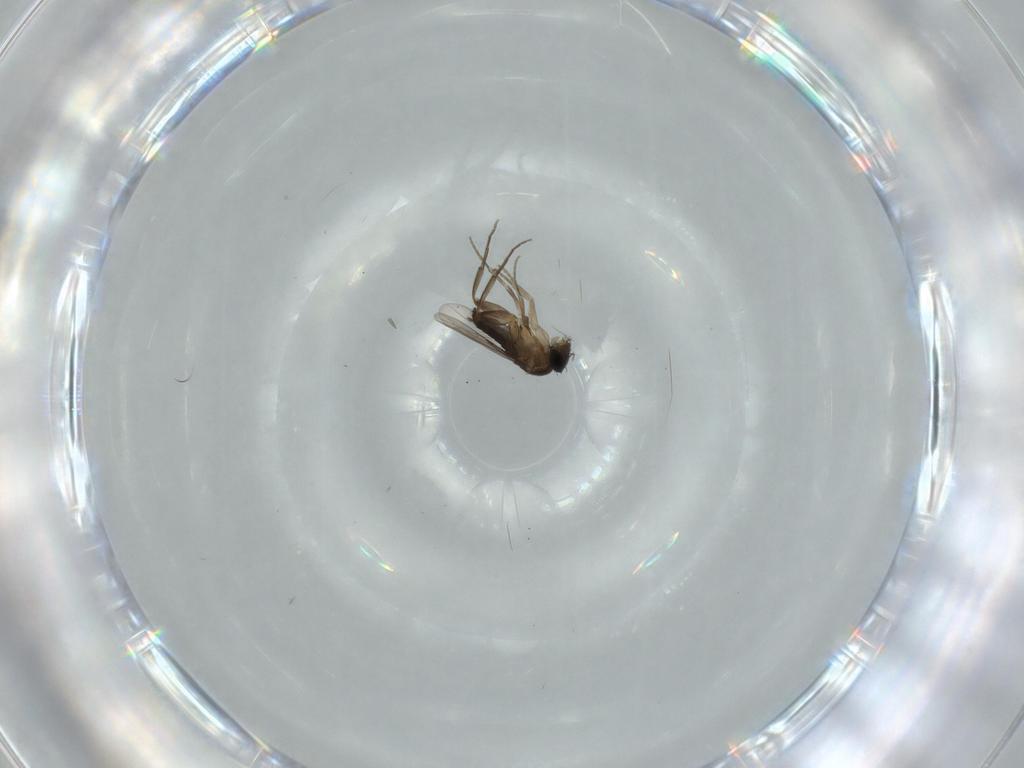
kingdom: Animalia
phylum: Arthropoda
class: Insecta
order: Diptera
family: Phoridae
